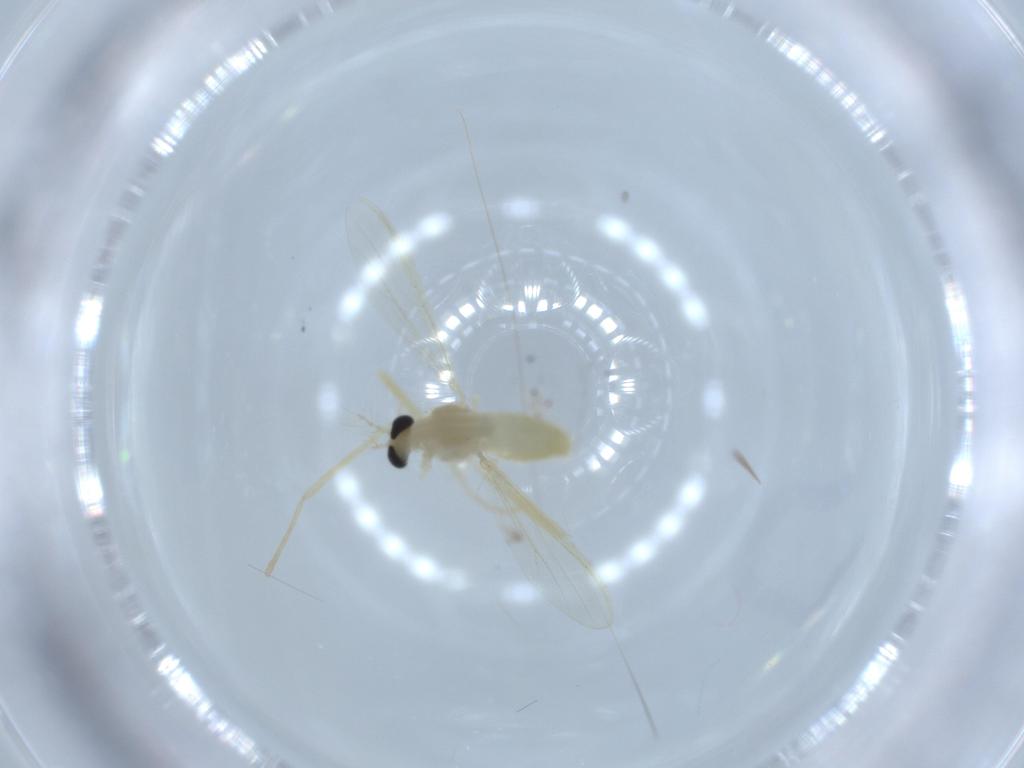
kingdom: Animalia
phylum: Arthropoda
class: Insecta
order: Diptera
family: Chironomidae
